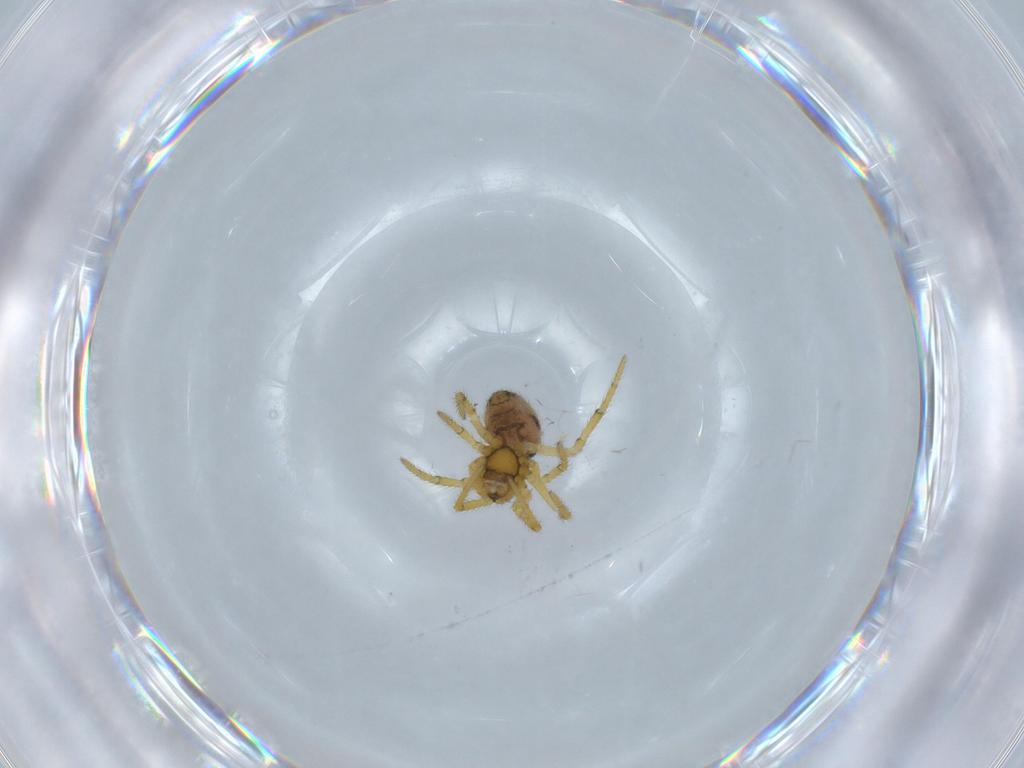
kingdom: Animalia
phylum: Arthropoda
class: Arachnida
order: Araneae
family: Theridiidae
